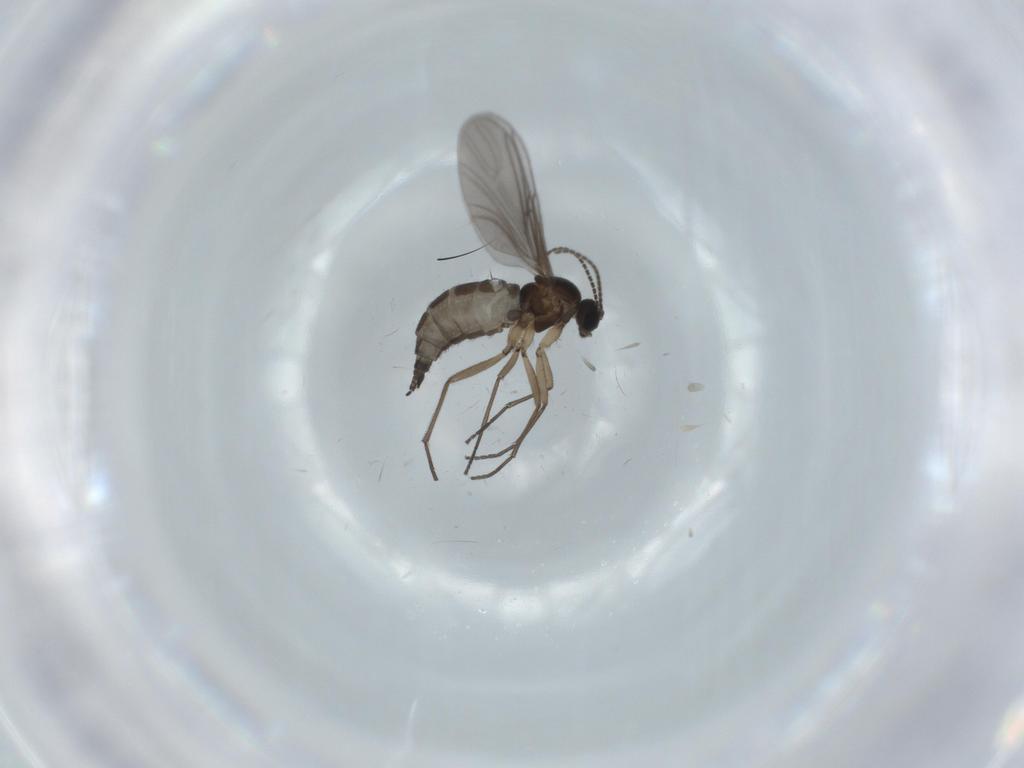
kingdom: Animalia
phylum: Arthropoda
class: Insecta
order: Diptera
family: Sciaridae
